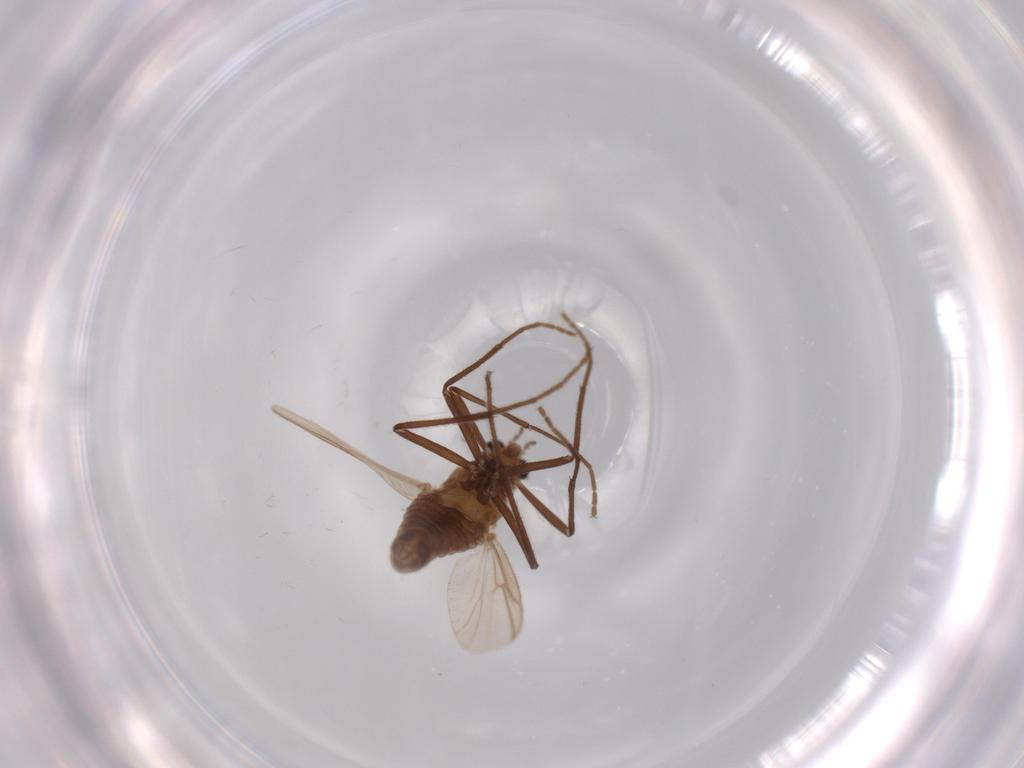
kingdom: Animalia
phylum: Arthropoda
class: Insecta
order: Diptera
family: Chironomidae
